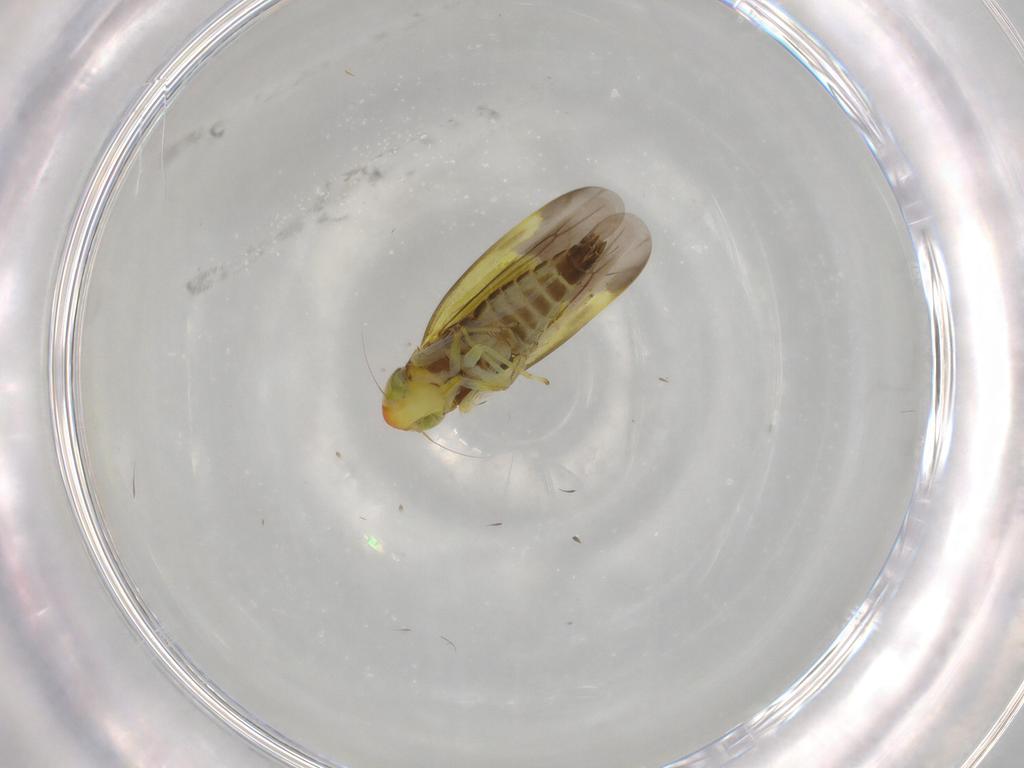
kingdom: Animalia
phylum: Arthropoda
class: Insecta
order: Hemiptera
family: Cicadellidae
